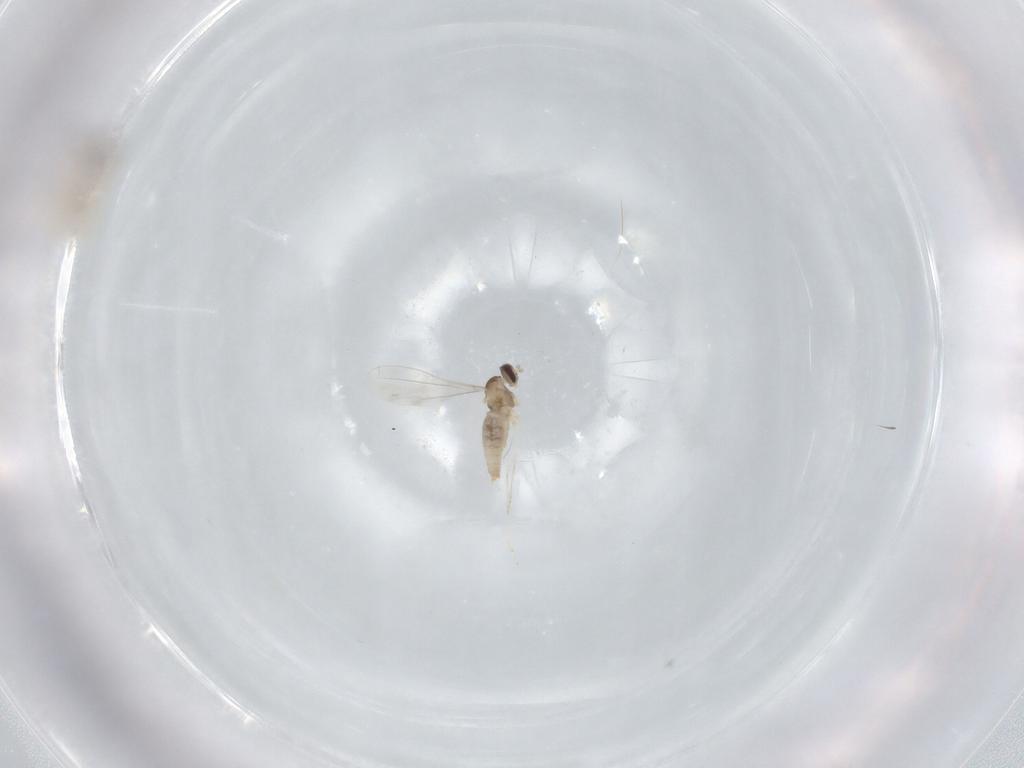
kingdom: Animalia
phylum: Arthropoda
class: Insecta
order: Diptera
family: Cecidomyiidae
